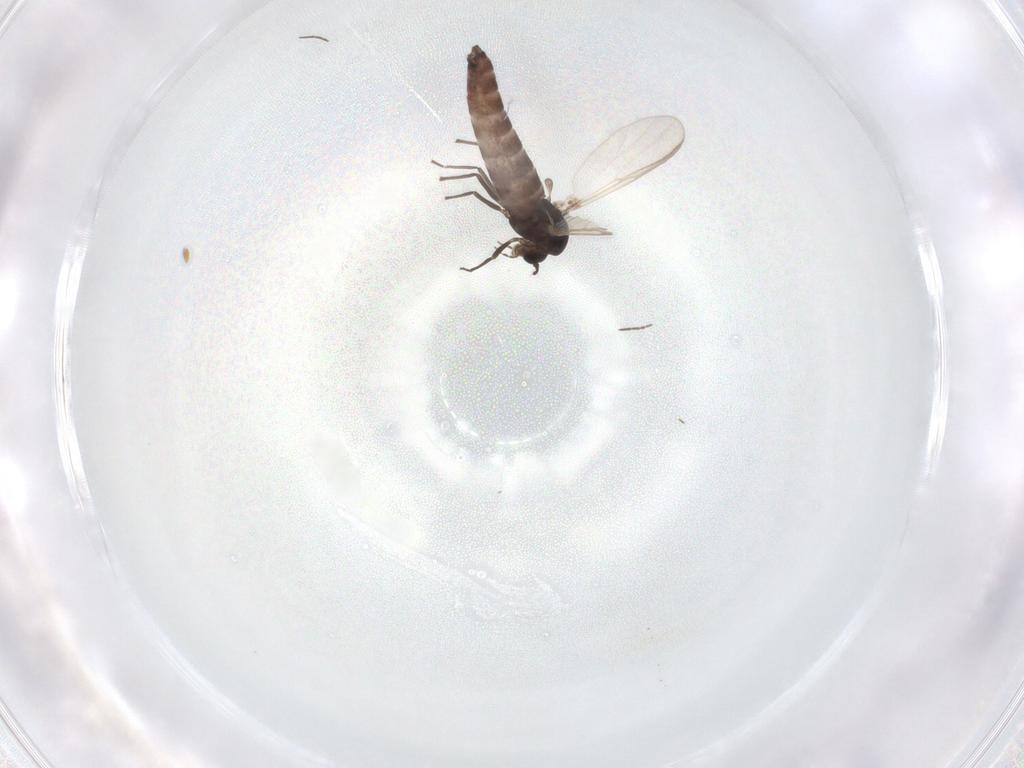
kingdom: Animalia
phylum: Arthropoda
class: Insecta
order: Diptera
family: Chironomidae
